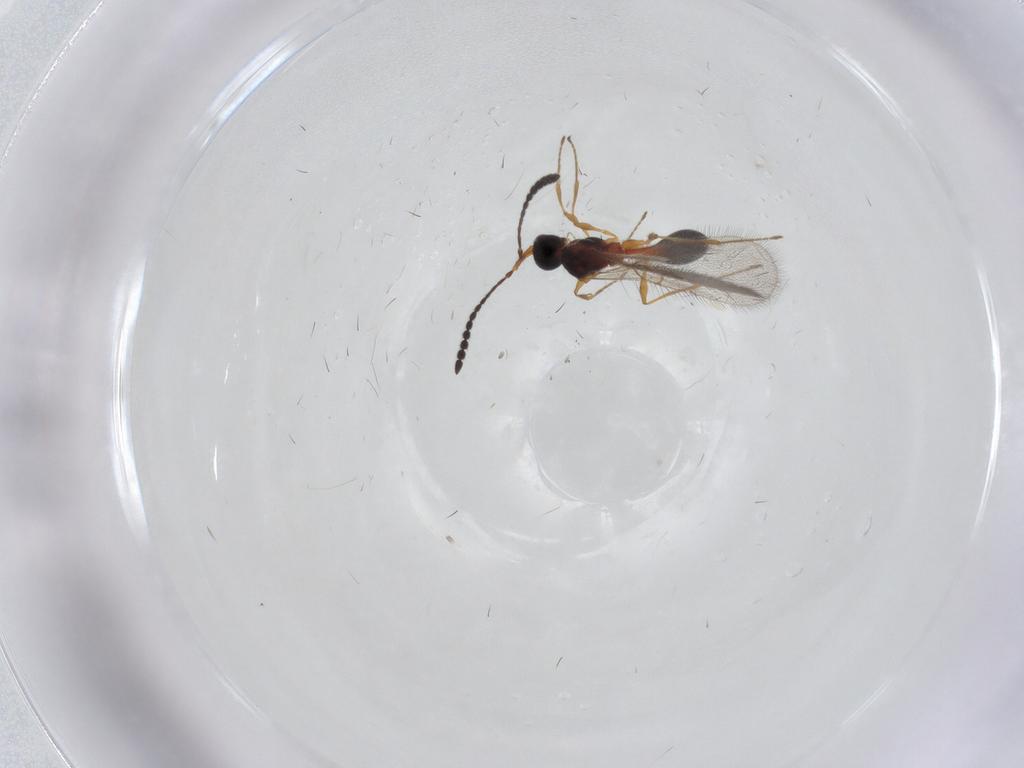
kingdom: Animalia
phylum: Arthropoda
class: Insecta
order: Hymenoptera
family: Diapriidae
